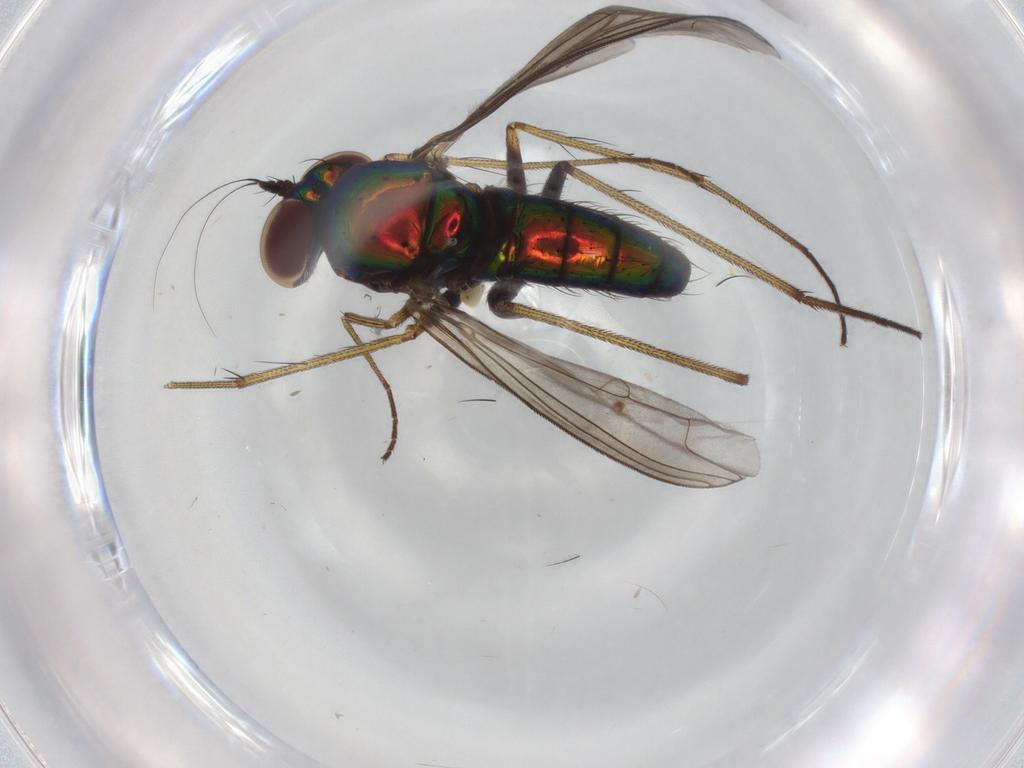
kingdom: Animalia
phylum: Arthropoda
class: Insecta
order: Diptera
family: Dolichopodidae
